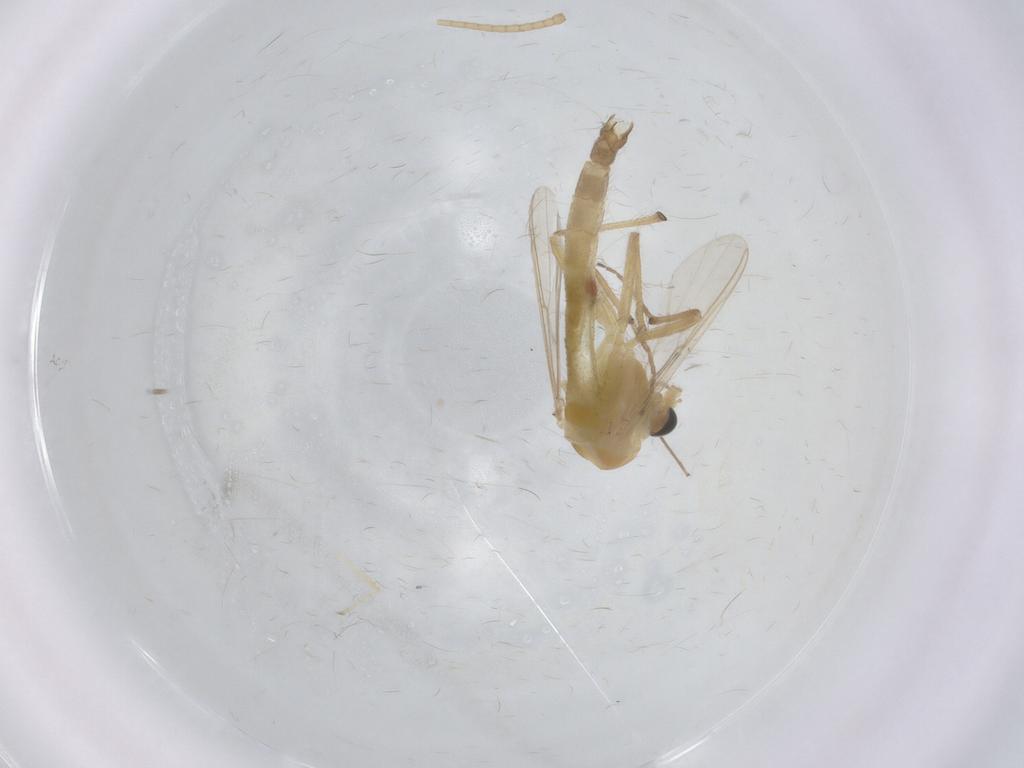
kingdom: Animalia
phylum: Arthropoda
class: Insecta
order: Diptera
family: Chironomidae
